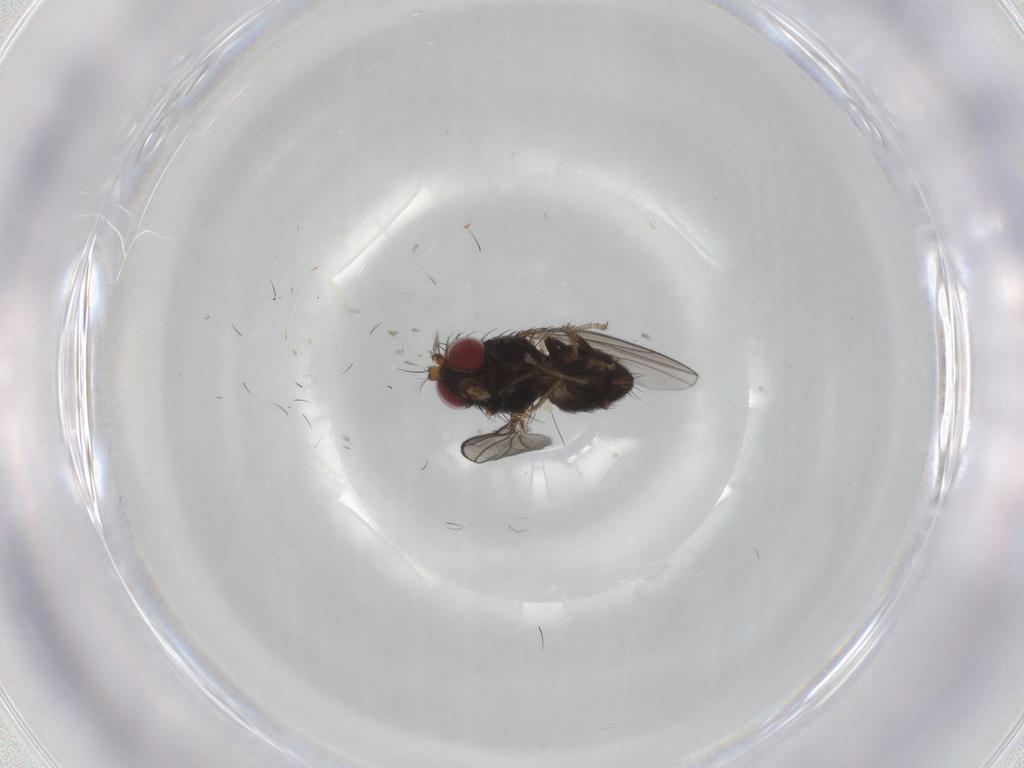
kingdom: Animalia
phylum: Arthropoda
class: Insecta
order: Diptera
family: Ephydridae
